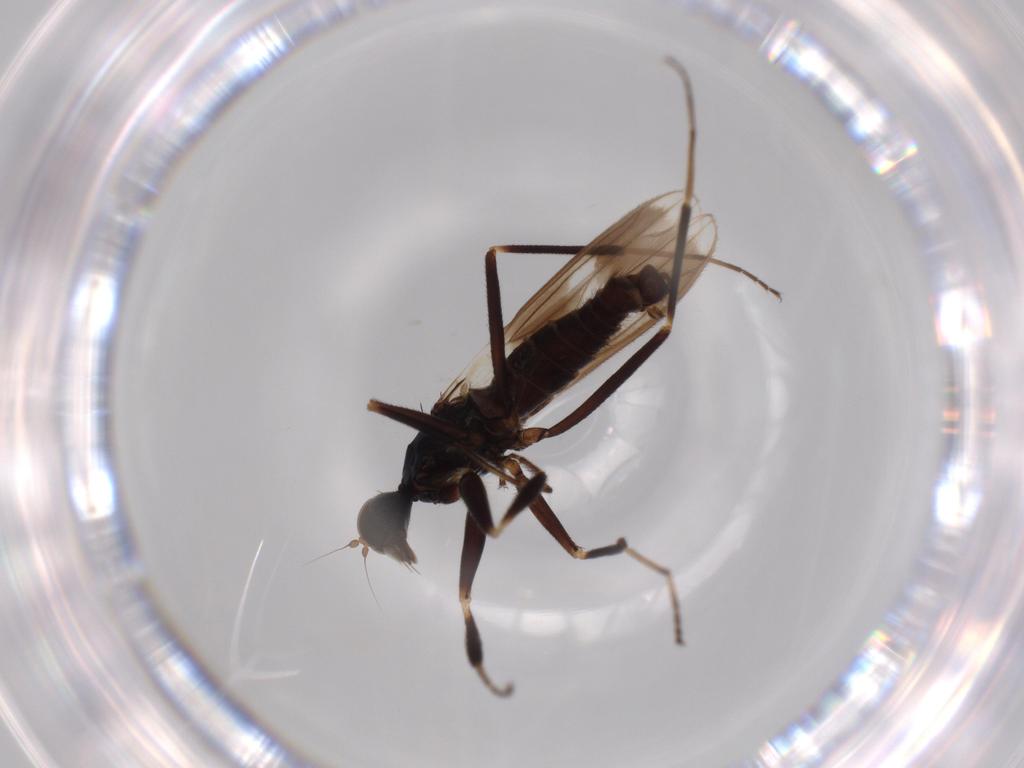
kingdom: Animalia
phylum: Arthropoda
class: Insecta
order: Diptera
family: Hybotidae
